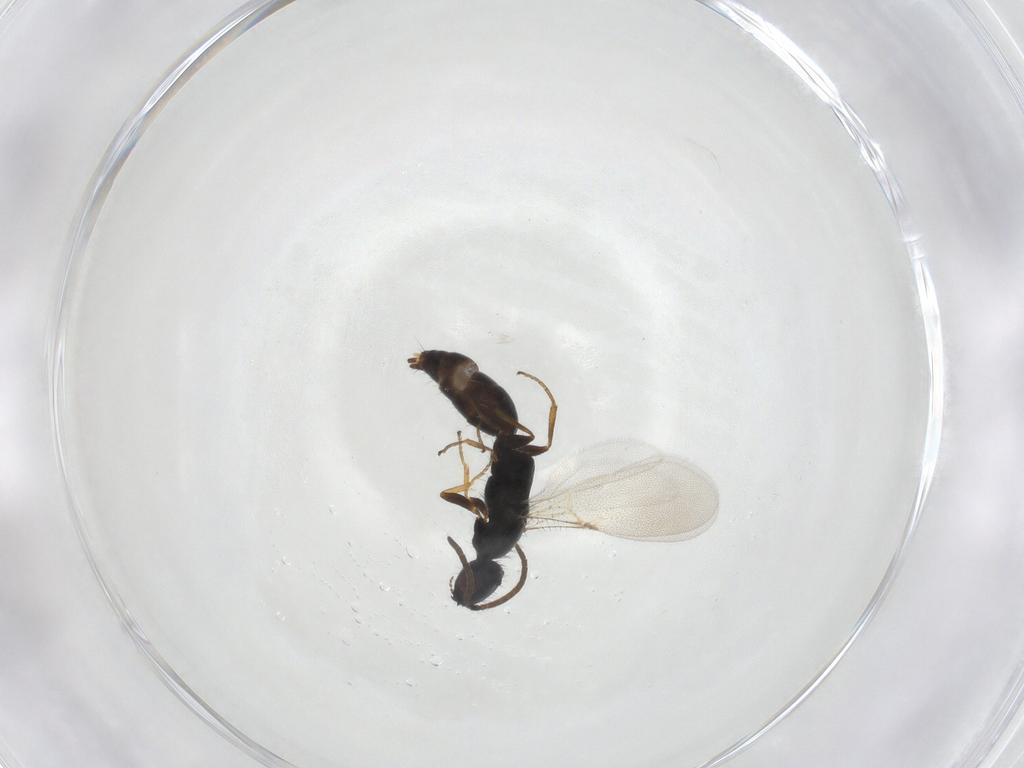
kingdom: Animalia
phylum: Arthropoda
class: Insecta
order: Hymenoptera
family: Bethylidae
